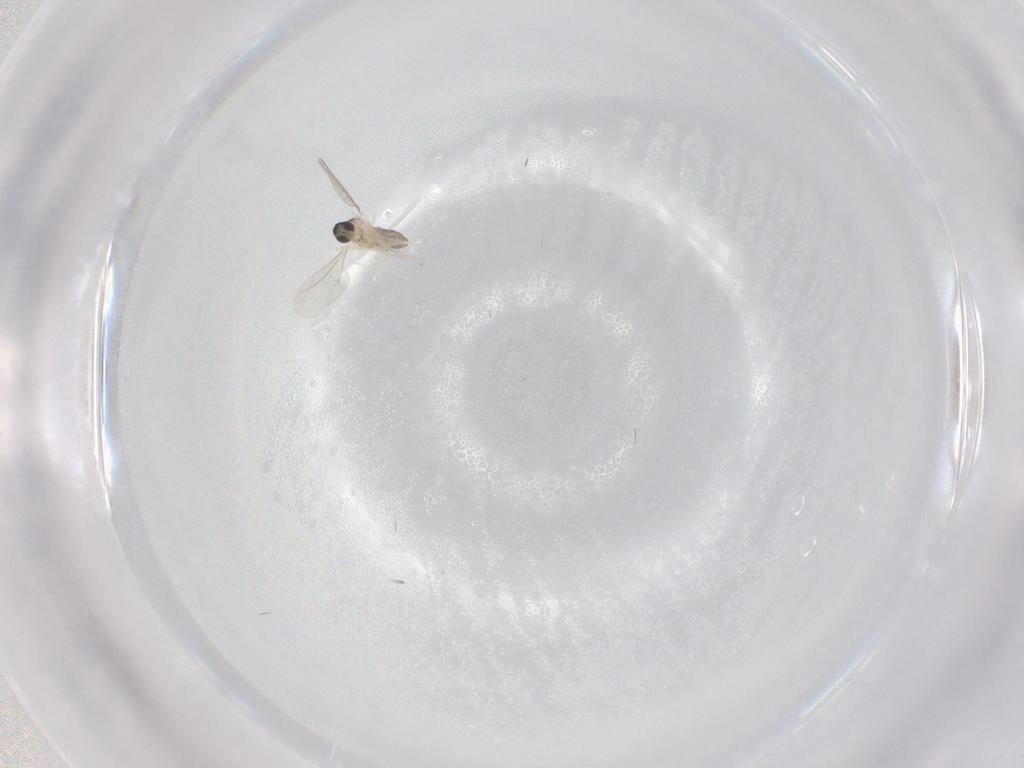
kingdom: Animalia
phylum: Arthropoda
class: Insecta
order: Diptera
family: Cecidomyiidae
